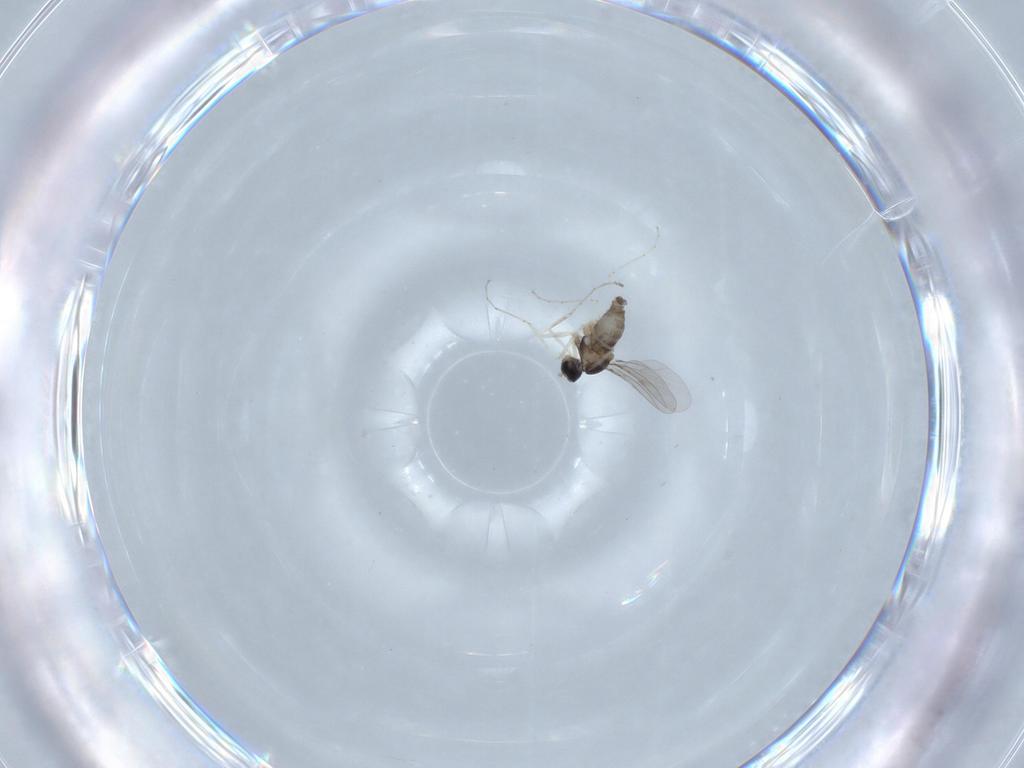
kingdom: Animalia
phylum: Arthropoda
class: Insecta
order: Diptera
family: Cecidomyiidae
